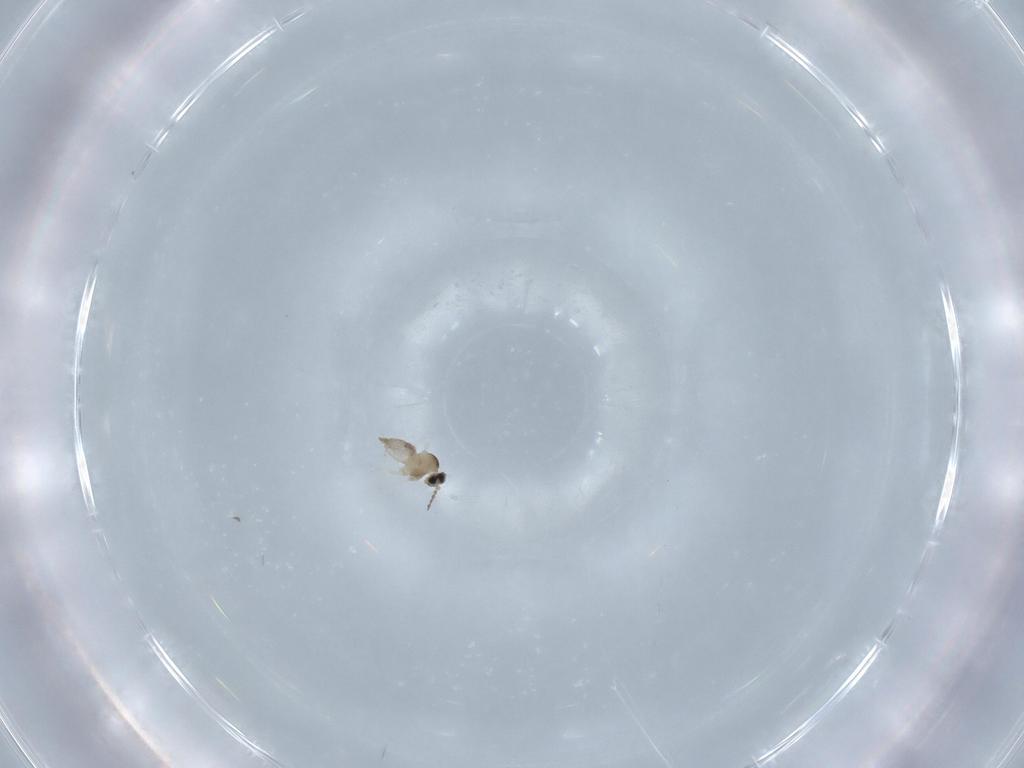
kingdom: Animalia
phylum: Arthropoda
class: Insecta
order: Diptera
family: Cecidomyiidae
